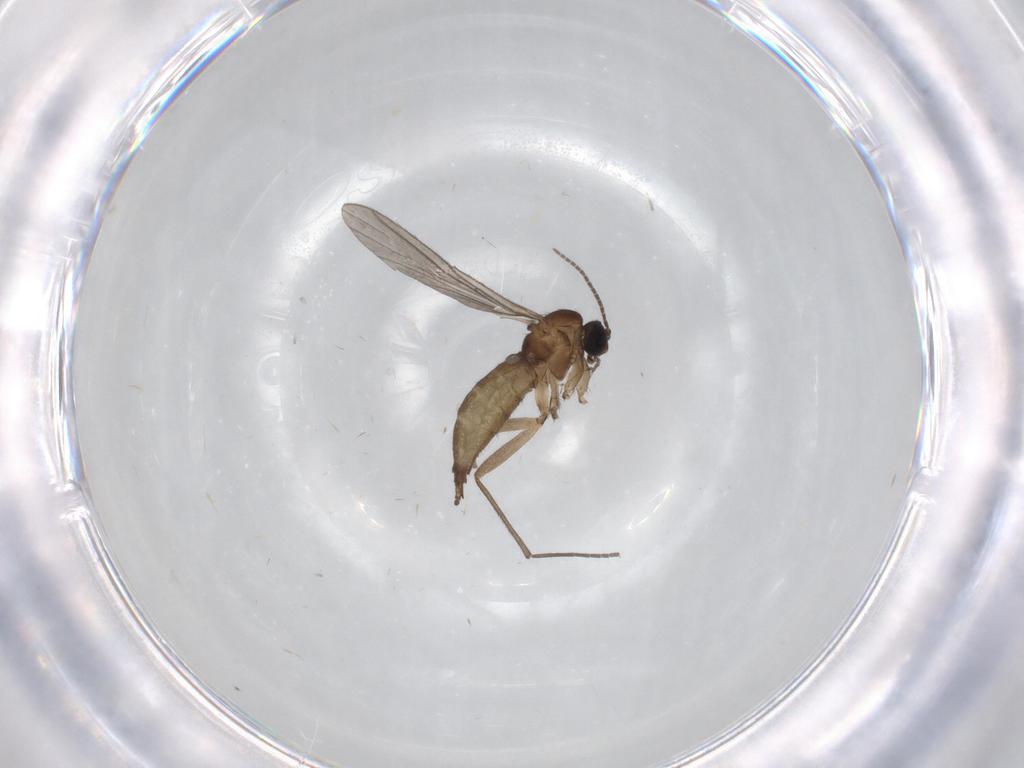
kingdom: Animalia
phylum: Arthropoda
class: Insecta
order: Diptera
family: Sciaridae
